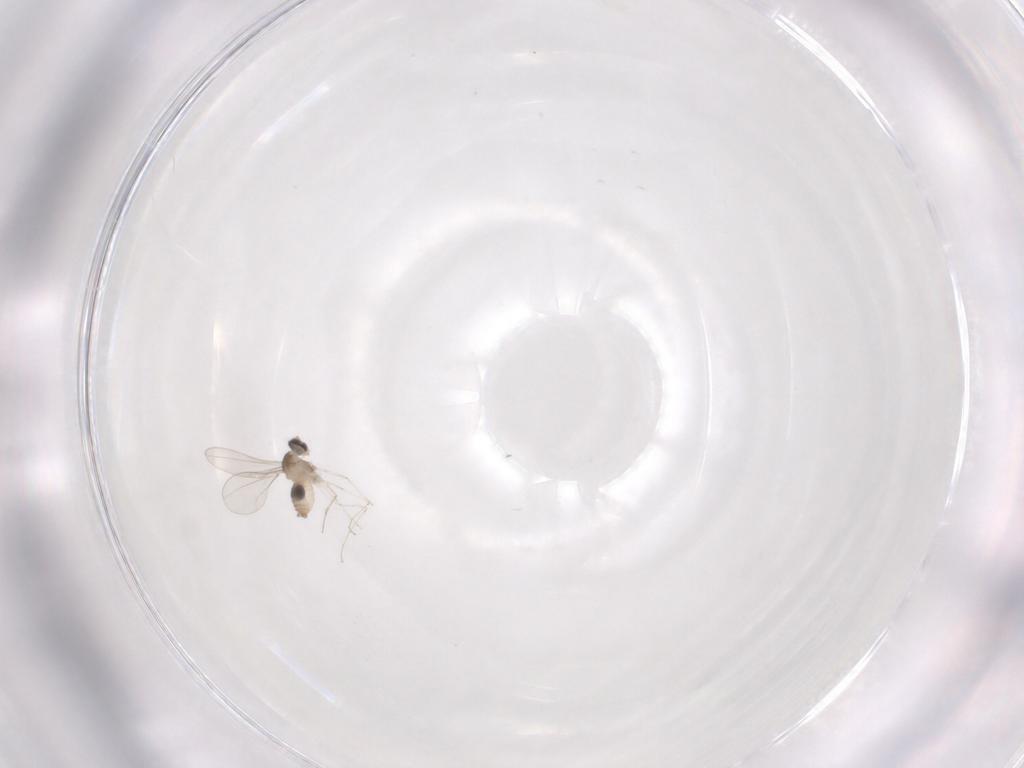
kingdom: Animalia
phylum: Arthropoda
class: Insecta
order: Diptera
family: Cecidomyiidae
